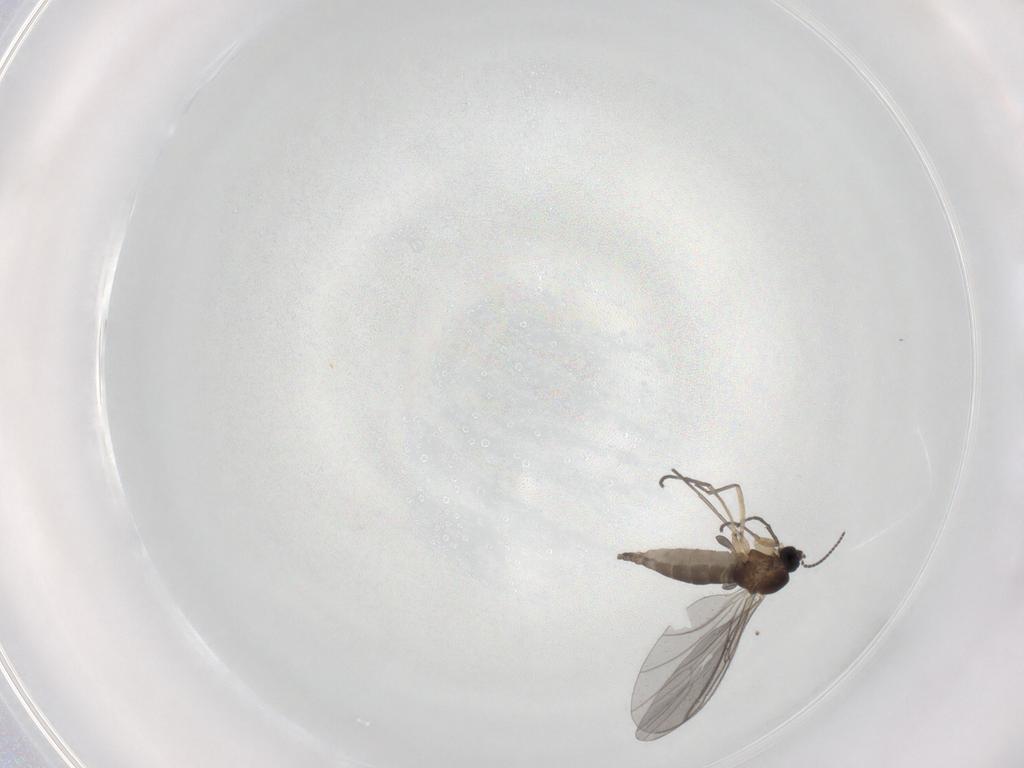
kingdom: Animalia
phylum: Arthropoda
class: Insecta
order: Diptera
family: Sciaridae
